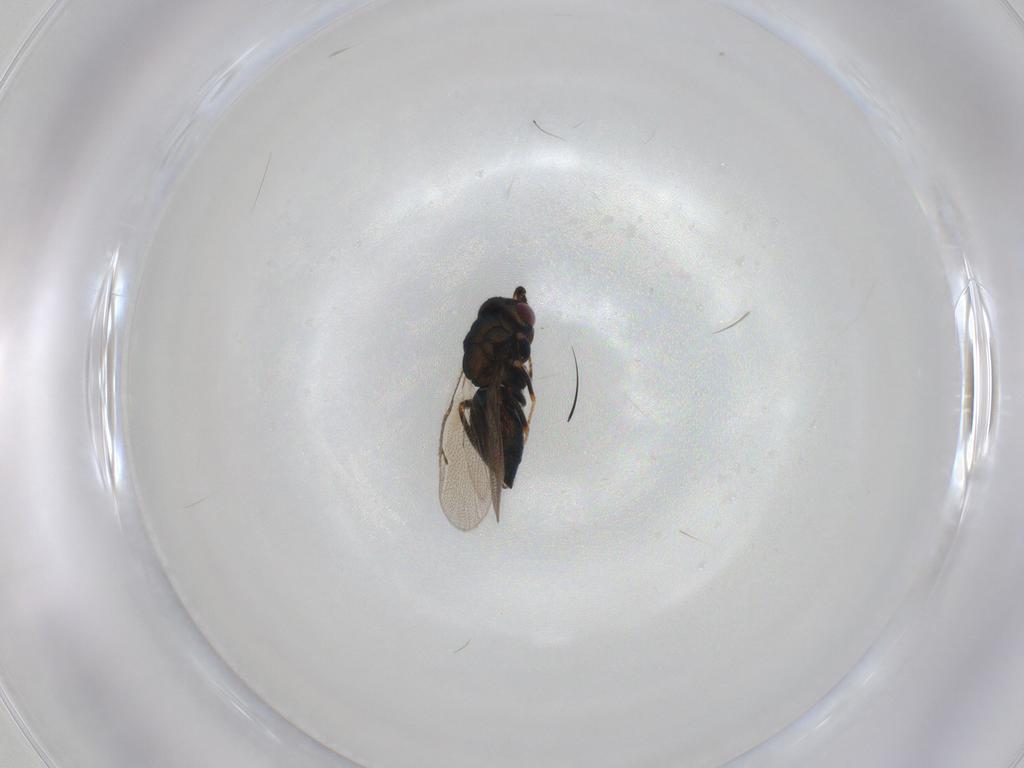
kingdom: Animalia
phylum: Arthropoda
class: Insecta
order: Hymenoptera
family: Scelionidae
